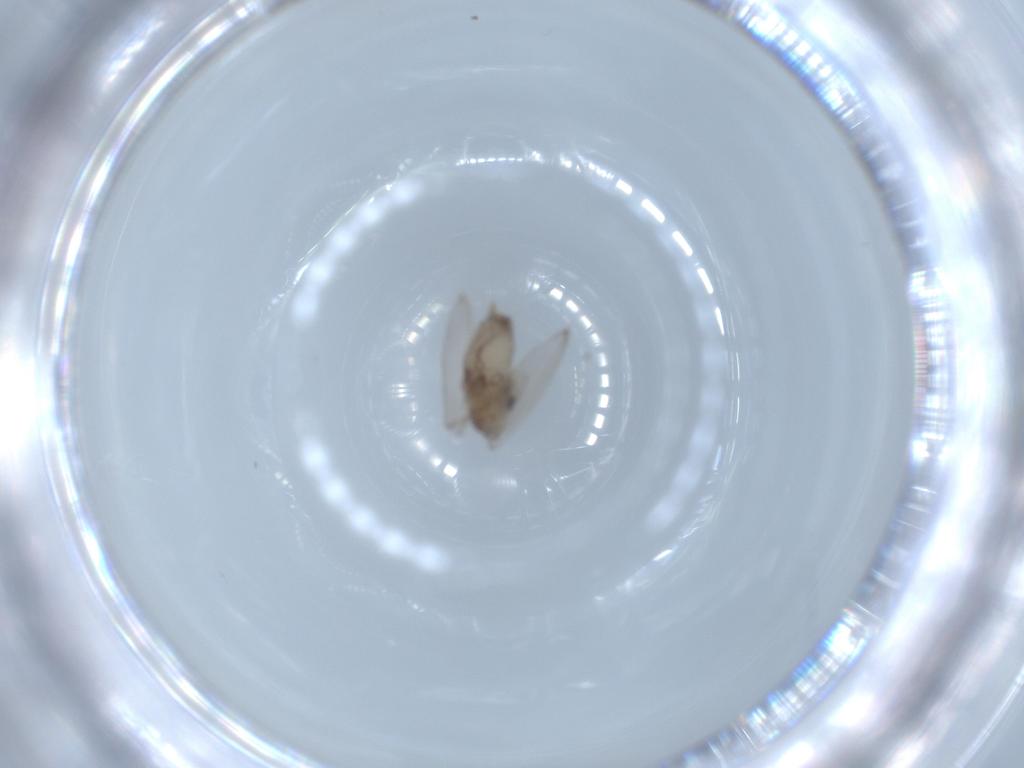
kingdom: Animalia
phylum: Arthropoda
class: Insecta
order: Diptera
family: Psychodidae
